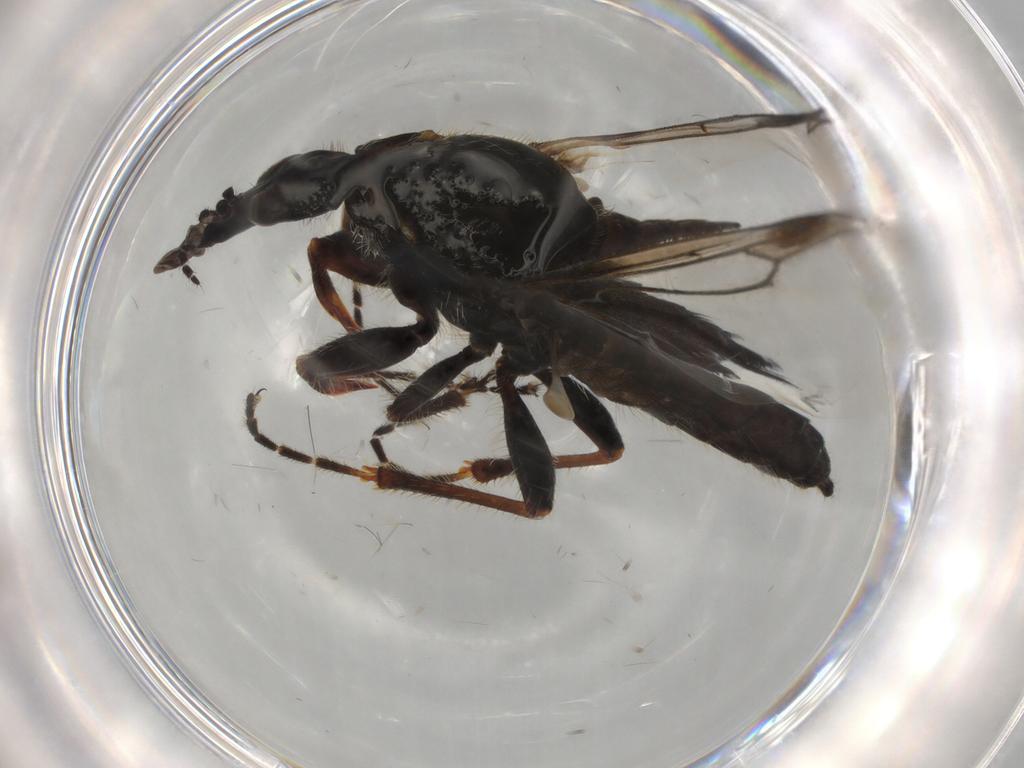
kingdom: Animalia
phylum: Arthropoda
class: Insecta
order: Diptera
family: Bibionidae
